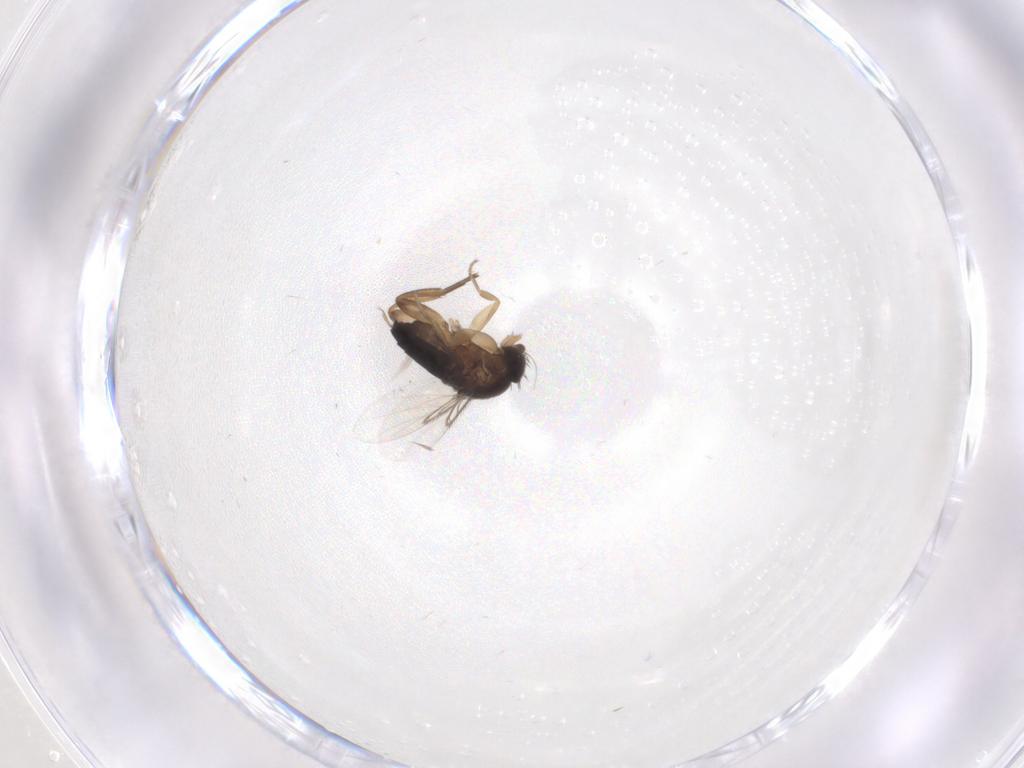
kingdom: Animalia
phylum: Arthropoda
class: Insecta
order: Diptera
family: Phoridae
